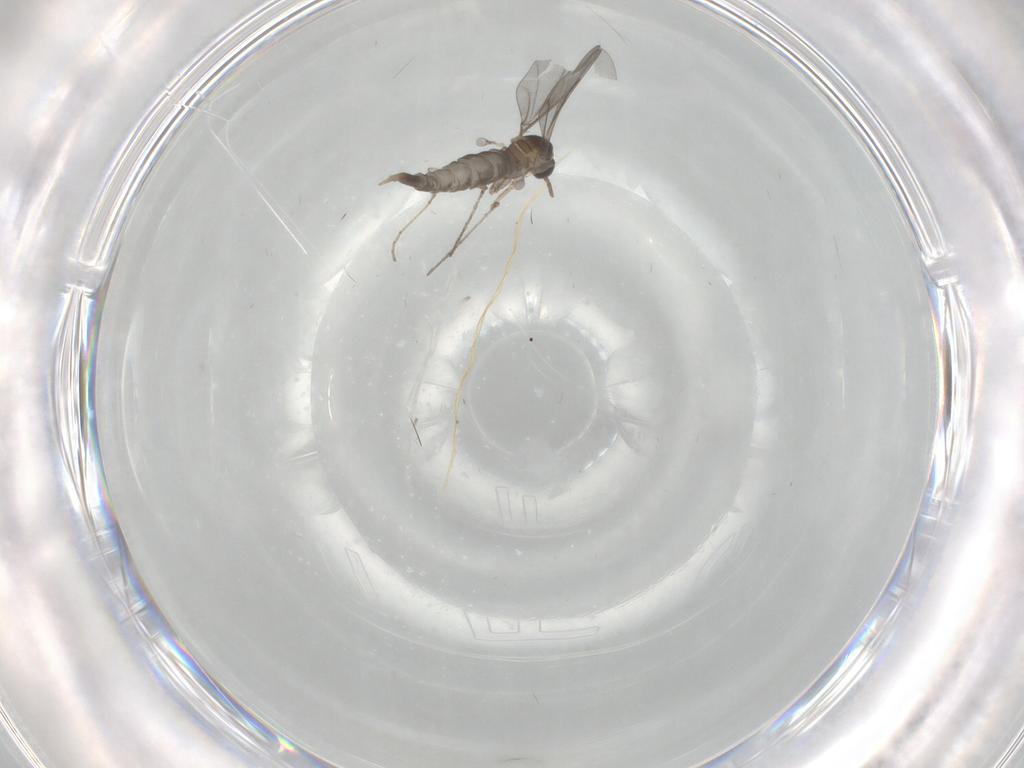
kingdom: Animalia
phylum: Arthropoda
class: Insecta
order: Diptera
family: Cecidomyiidae
